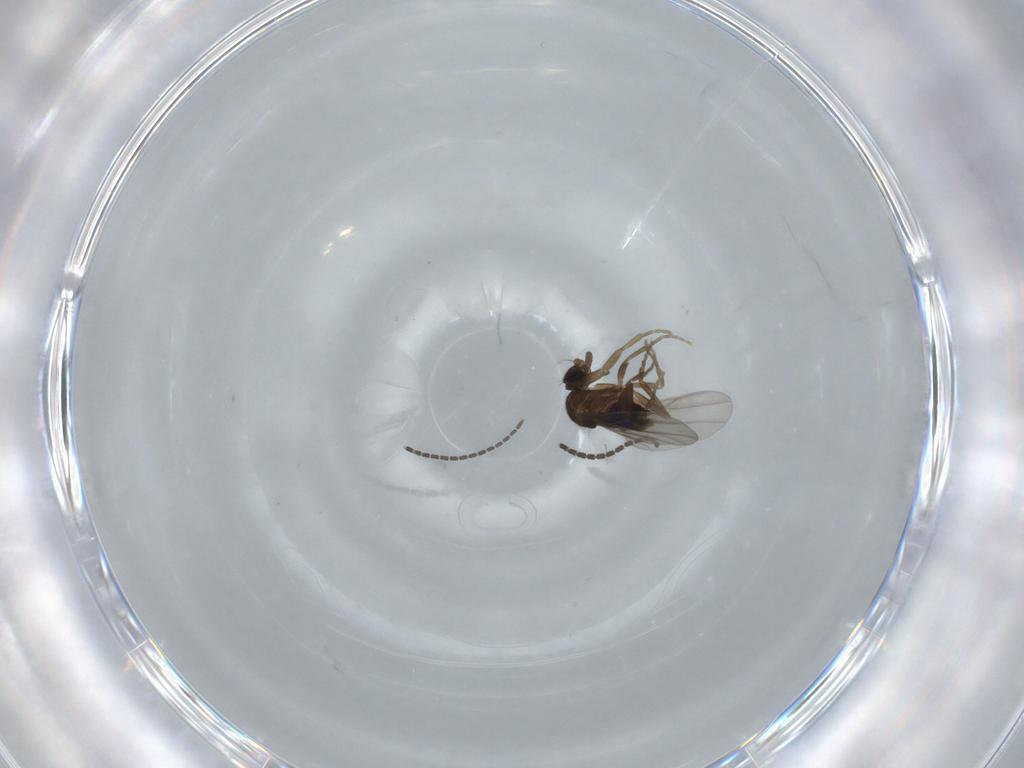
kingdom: Animalia
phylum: Arthropoda
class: Insecta
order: Diptera
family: Sciaridae
